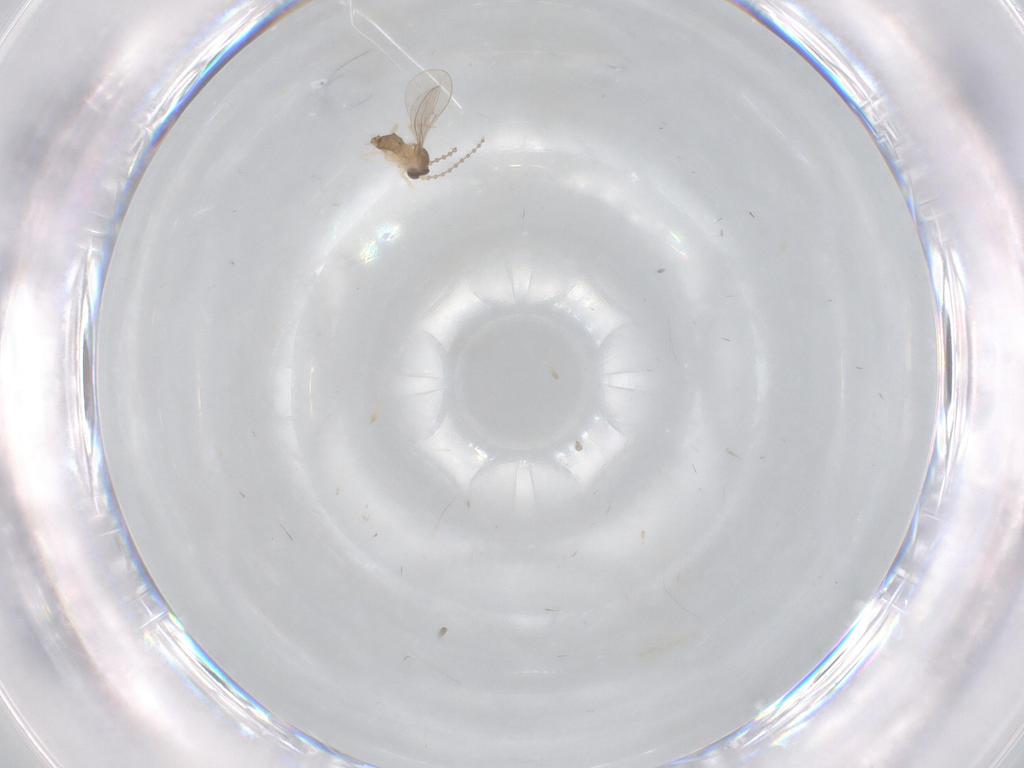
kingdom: Animalia
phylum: Arthropoda
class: Insecta
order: Diptera
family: Cecidomyiidae
